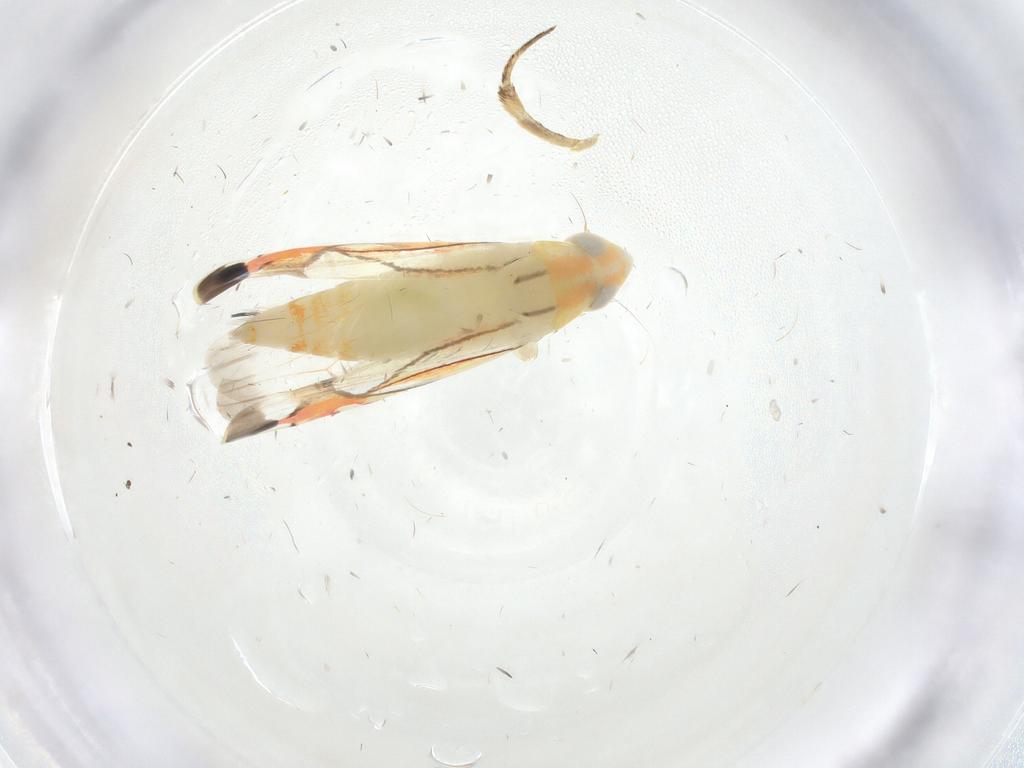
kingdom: Animalia
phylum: Arthropoda
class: Insecta
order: Hemiptera
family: Cicadellidae
